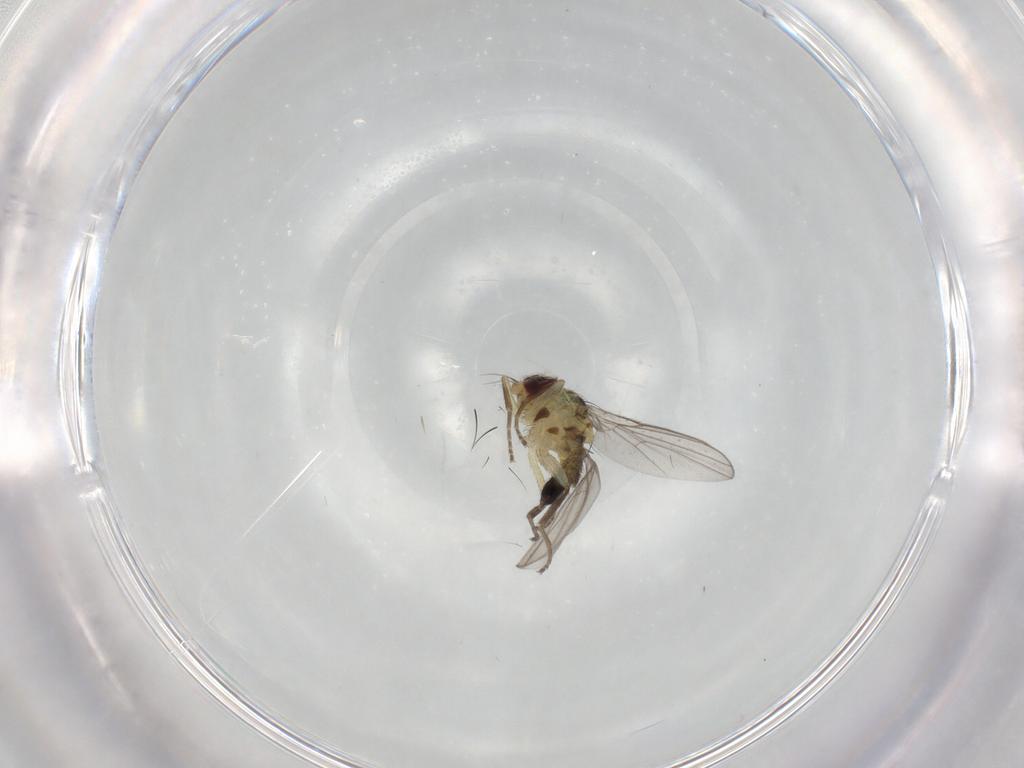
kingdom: Animalia
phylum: Arthropoda
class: Insecta
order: Diptera
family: Agromyzidae
